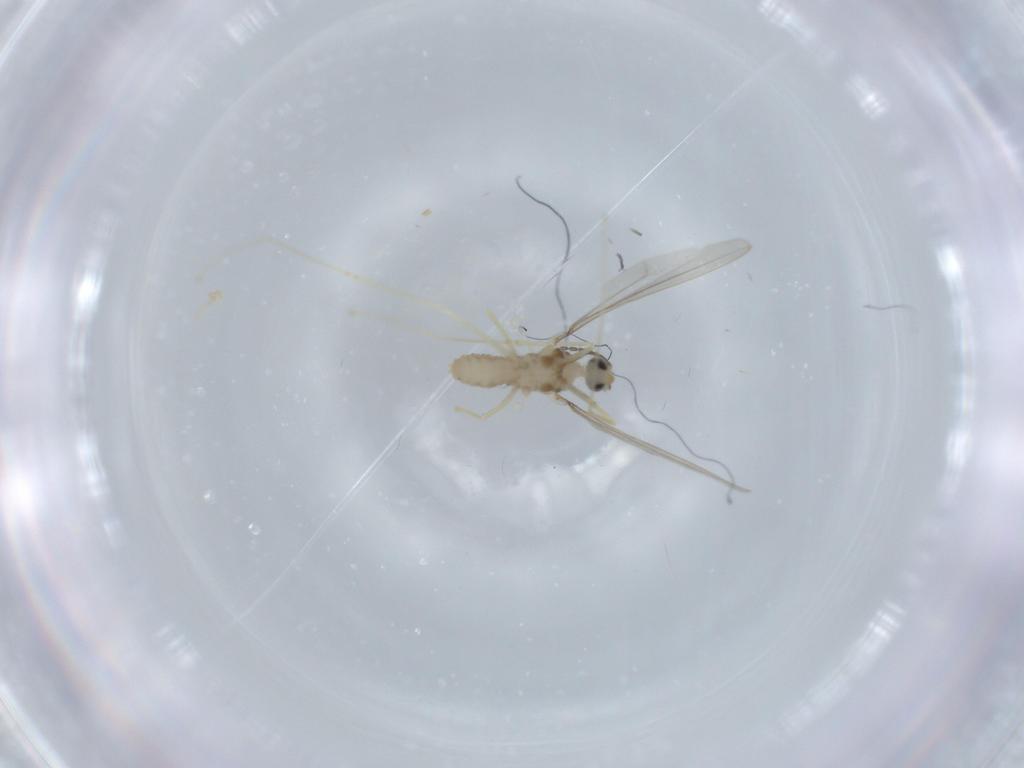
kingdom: Animalia
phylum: Arthropoda
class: Insecta
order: Diptera
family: Cecidomyiidae
